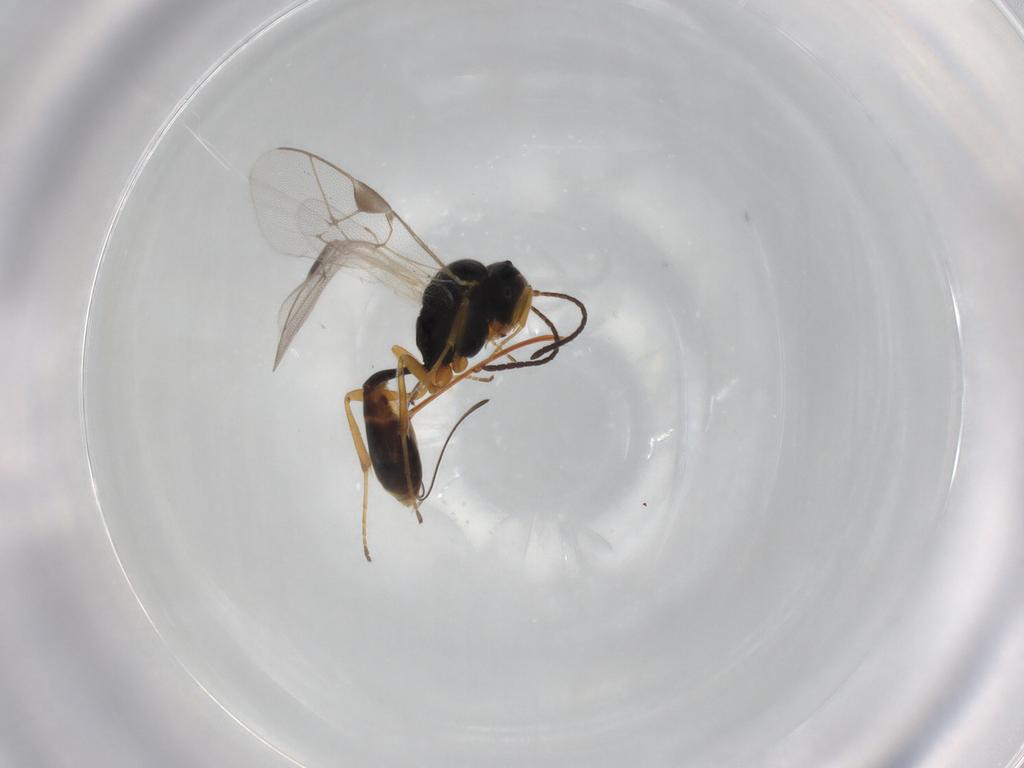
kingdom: Animalia
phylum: Arthropoda
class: Insecta
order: Hymenoptera
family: Ichneumonidae
